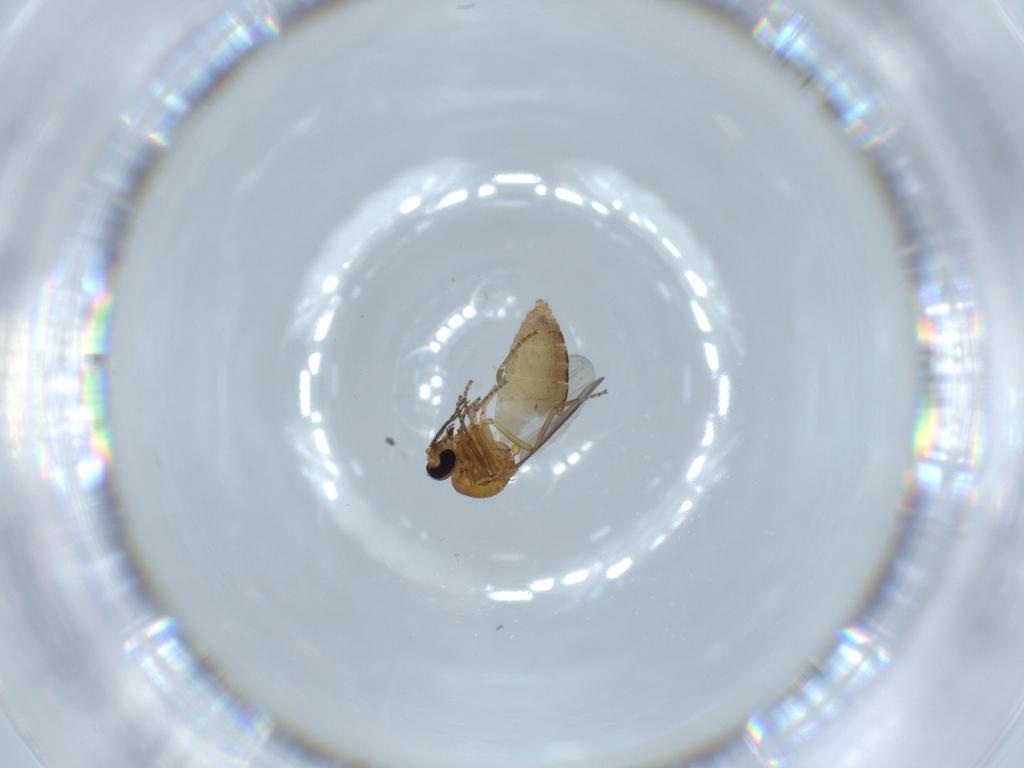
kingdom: Animalia
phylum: Arthropoda
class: Insecta
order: Diptera
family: Ceratopogonidae
